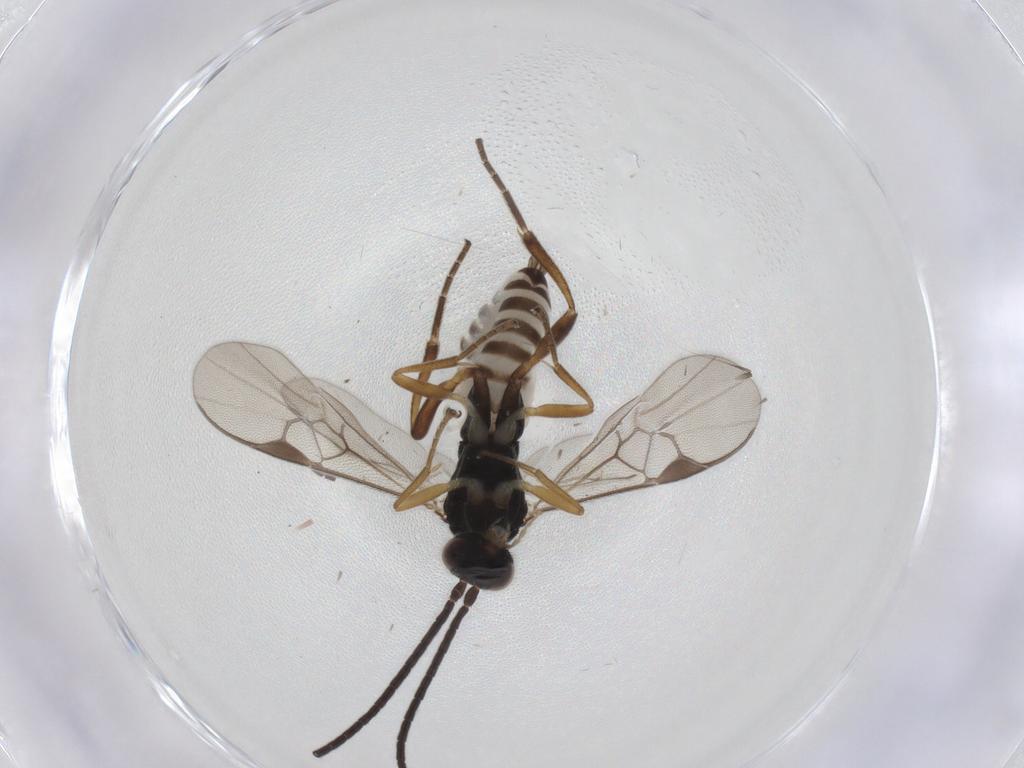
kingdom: Animalia
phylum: Arthropoda
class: Insecta
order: Hymenoptera
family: Braconidae
